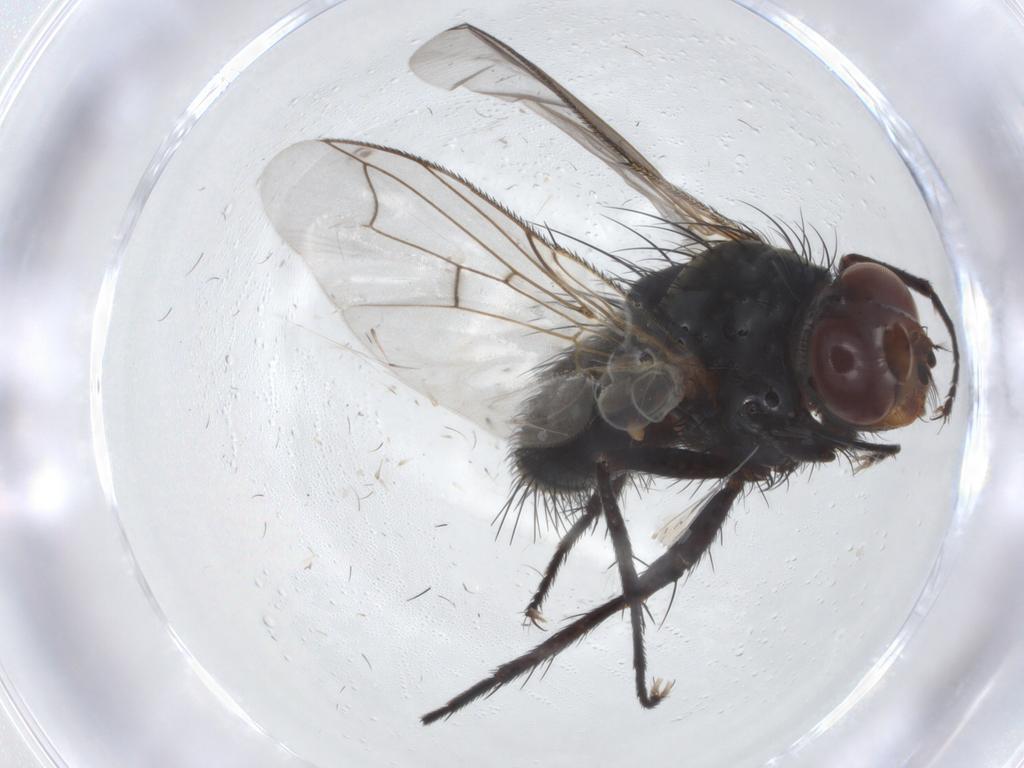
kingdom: Animalia
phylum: Arthropoda
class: Insecta
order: Diptera
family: Tachinidae
